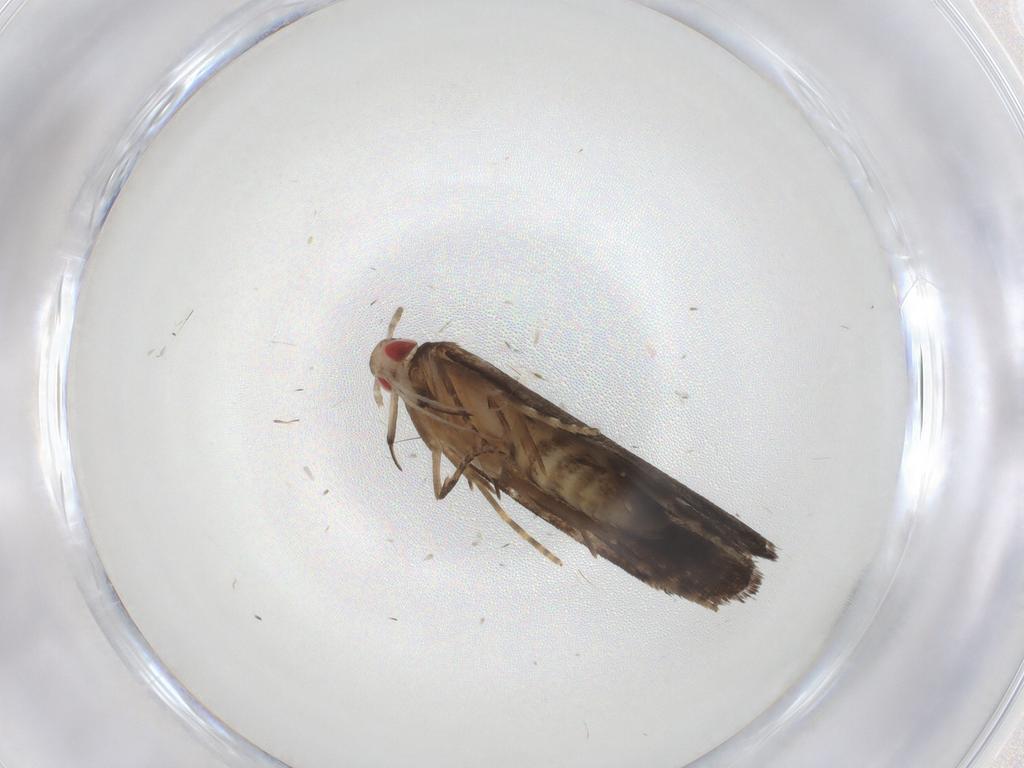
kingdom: Animalia
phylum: Arthropoda
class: Insecta
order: Lepidoptera
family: Gelechiidae
